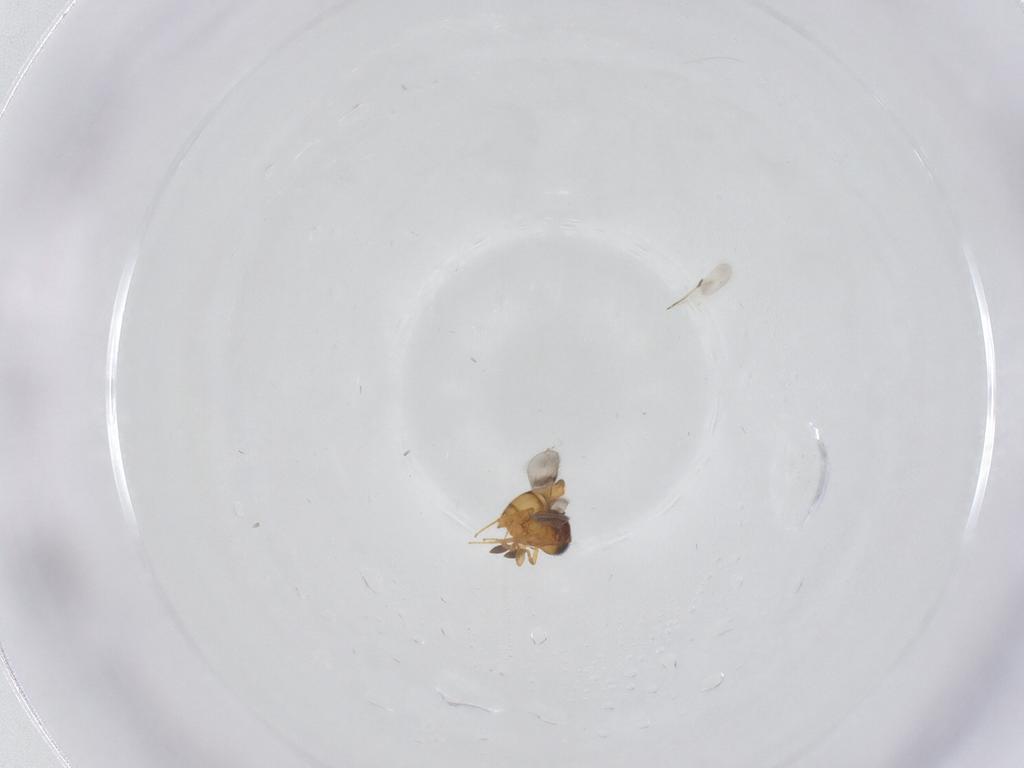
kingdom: Animalia
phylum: Arthropoda
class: Insecta
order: Hymenoptera
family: Scelionidae
